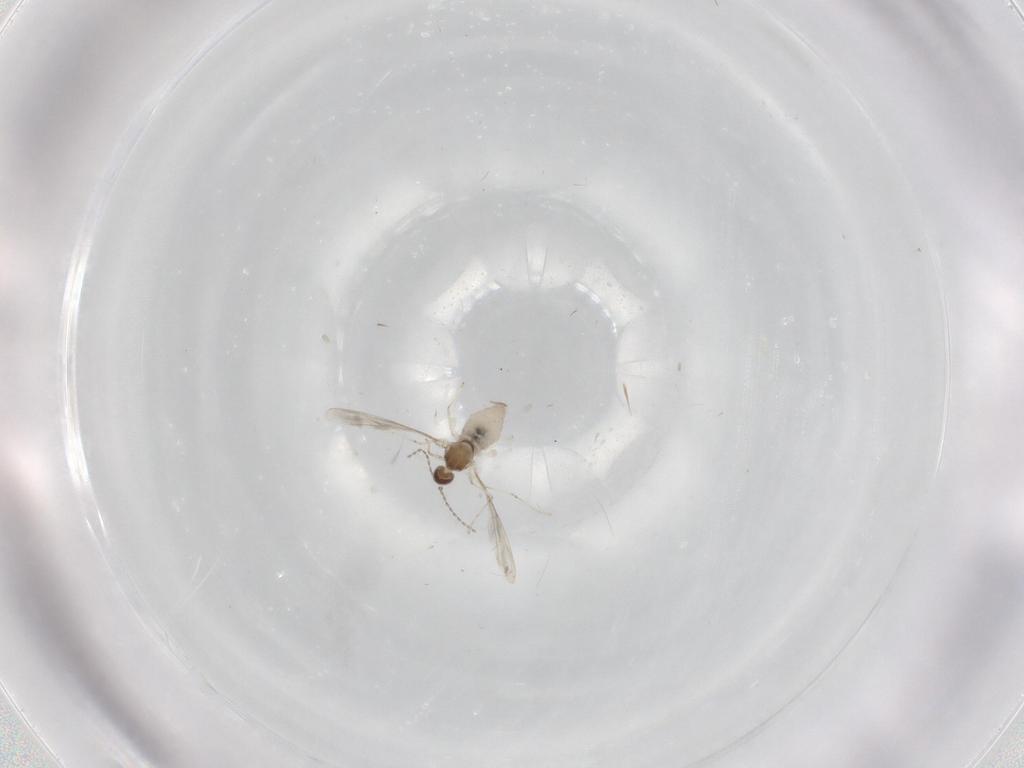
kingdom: Animalia
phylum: Arthropoda
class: Insecta
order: Diptera
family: Cecidomyiidae
